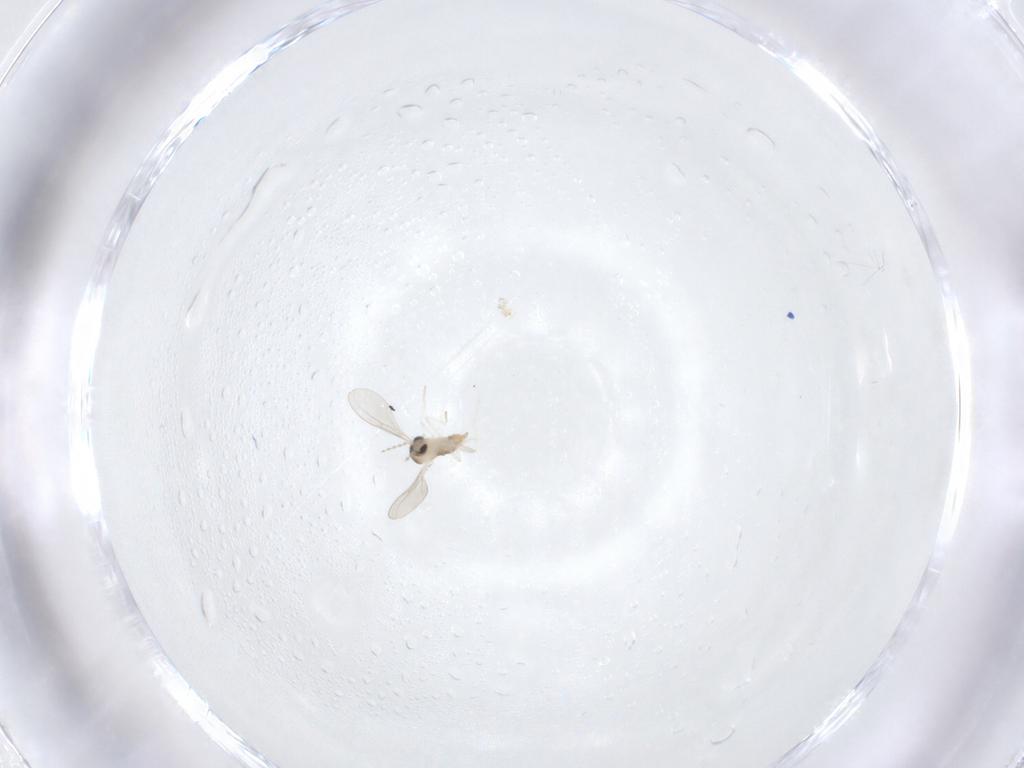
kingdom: Animalia
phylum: Arthropoda
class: Insecta
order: Diptera
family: Cecidomyiidae
